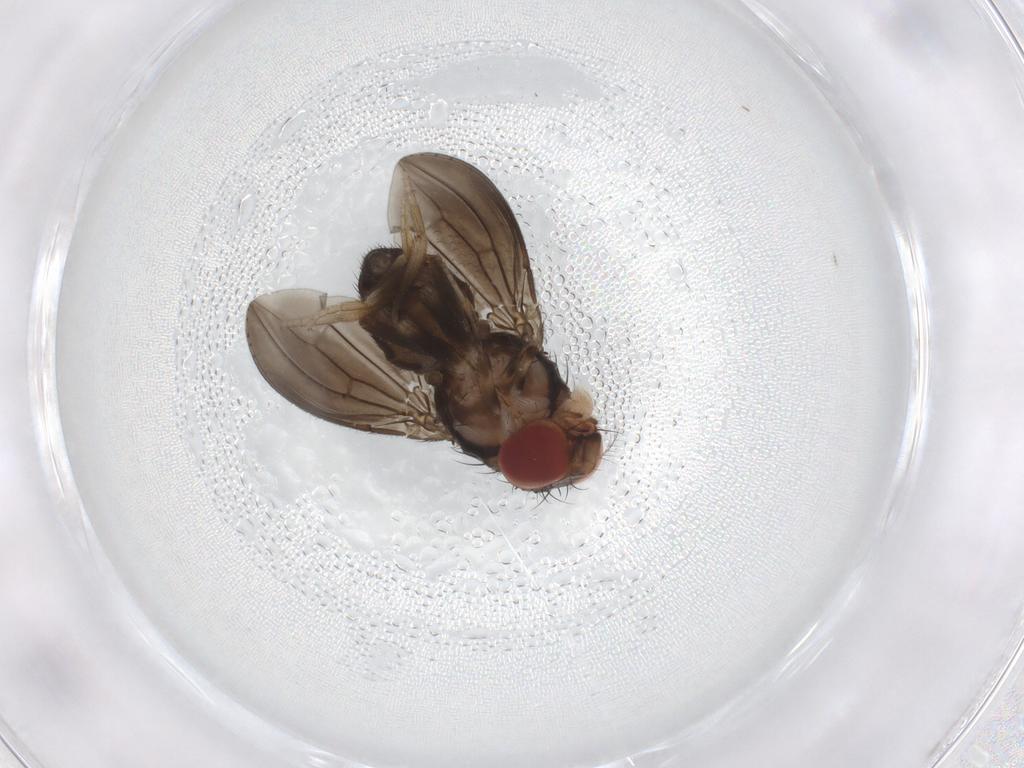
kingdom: Animalia
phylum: Arthropoda
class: Insecta
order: Diptera
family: Drosophilidae
